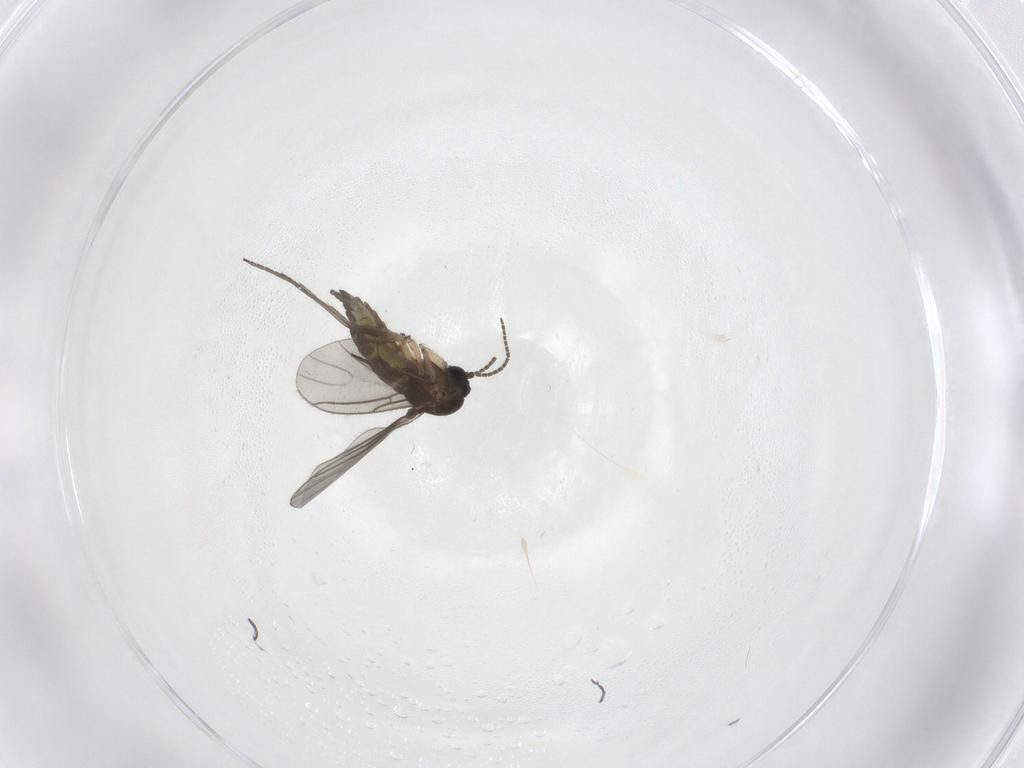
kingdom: Animalia
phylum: Arthropoda
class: Insecta
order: Diptera
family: Sciaridae
